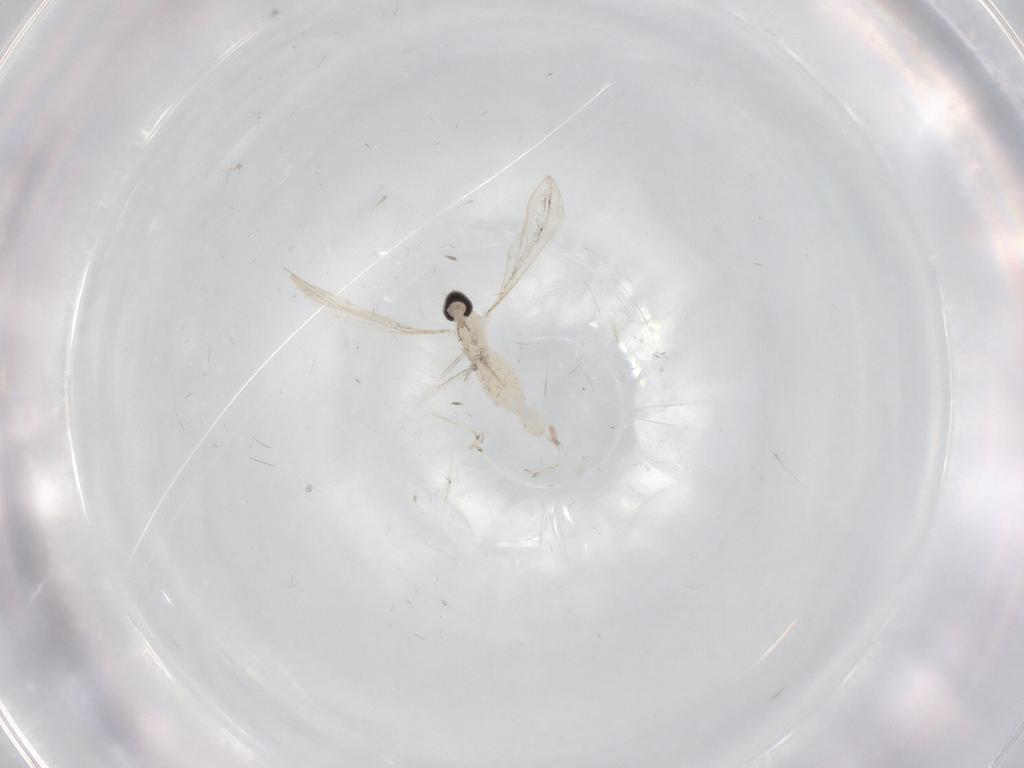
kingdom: Animalia
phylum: Arthropoda
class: Insecta
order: Diptera
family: Cecidomyiidae
